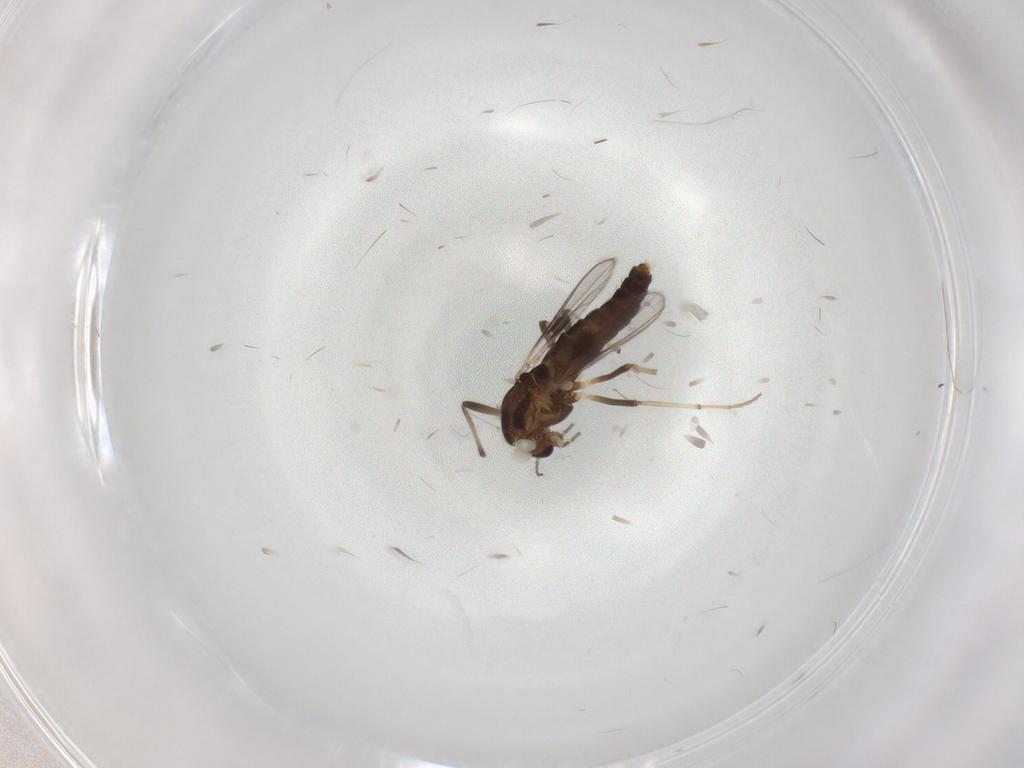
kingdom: Animalia
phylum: Arthropoda
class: Insecta
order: Diptera
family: Chironomidae
